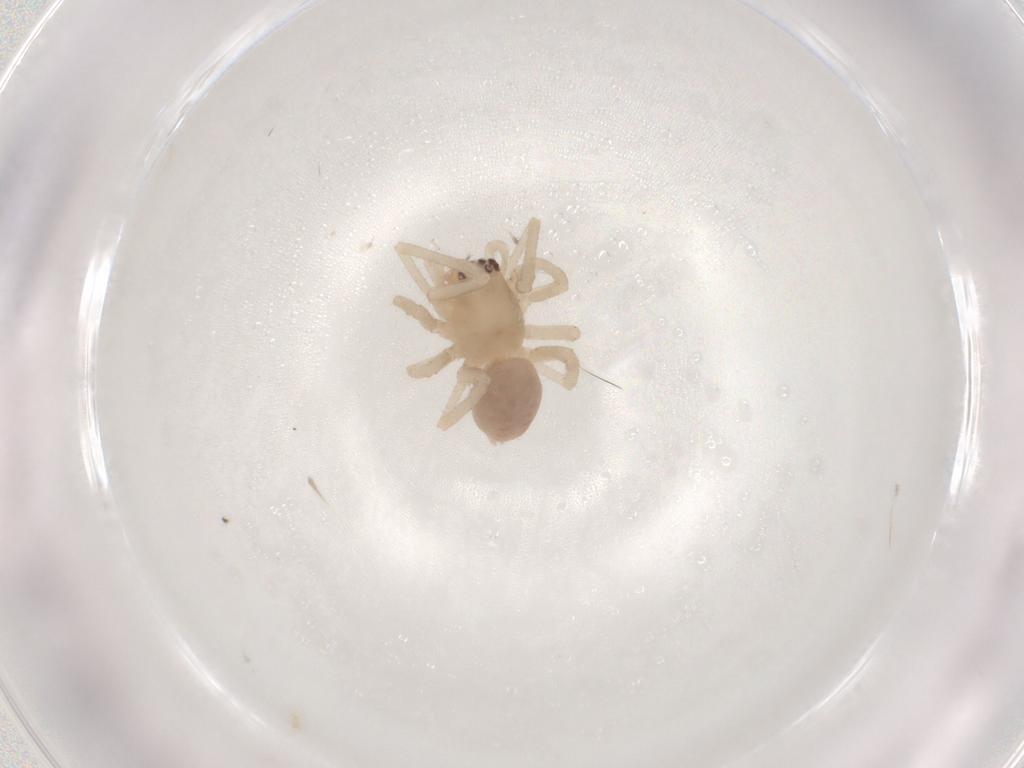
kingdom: Animalia
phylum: Arthropoda
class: Arachnida
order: Araneae
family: Cheiracanthiidae
